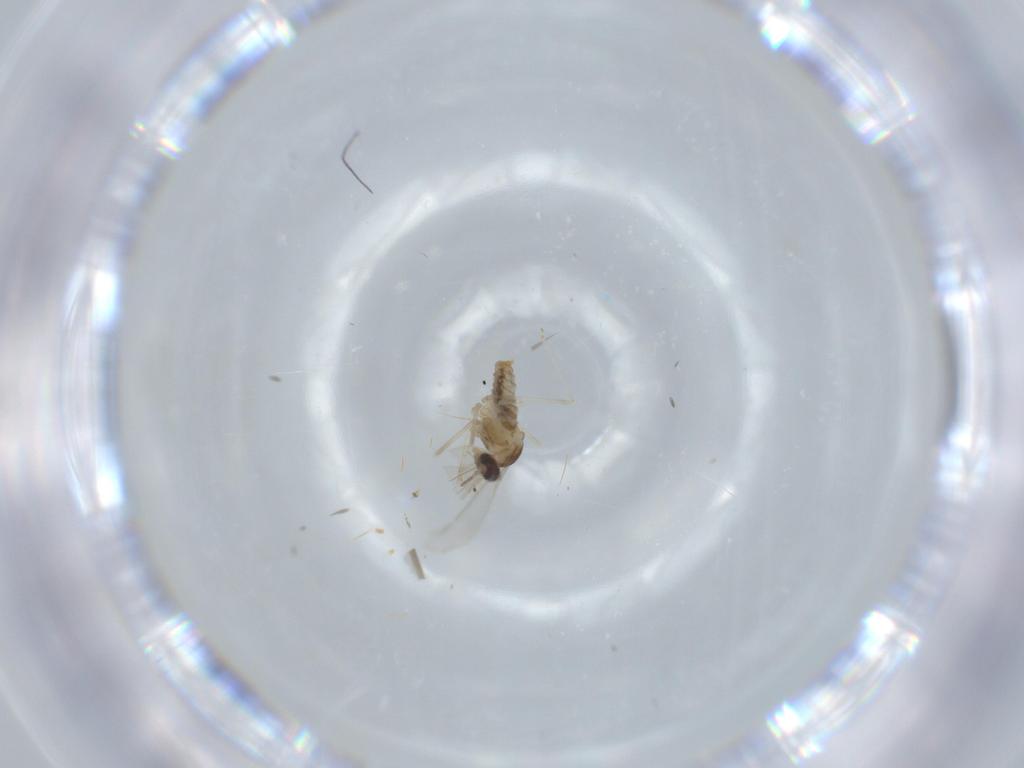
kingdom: Animalia
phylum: Arthropoda
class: Insecta
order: Diptera
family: Cecidomyiidae
